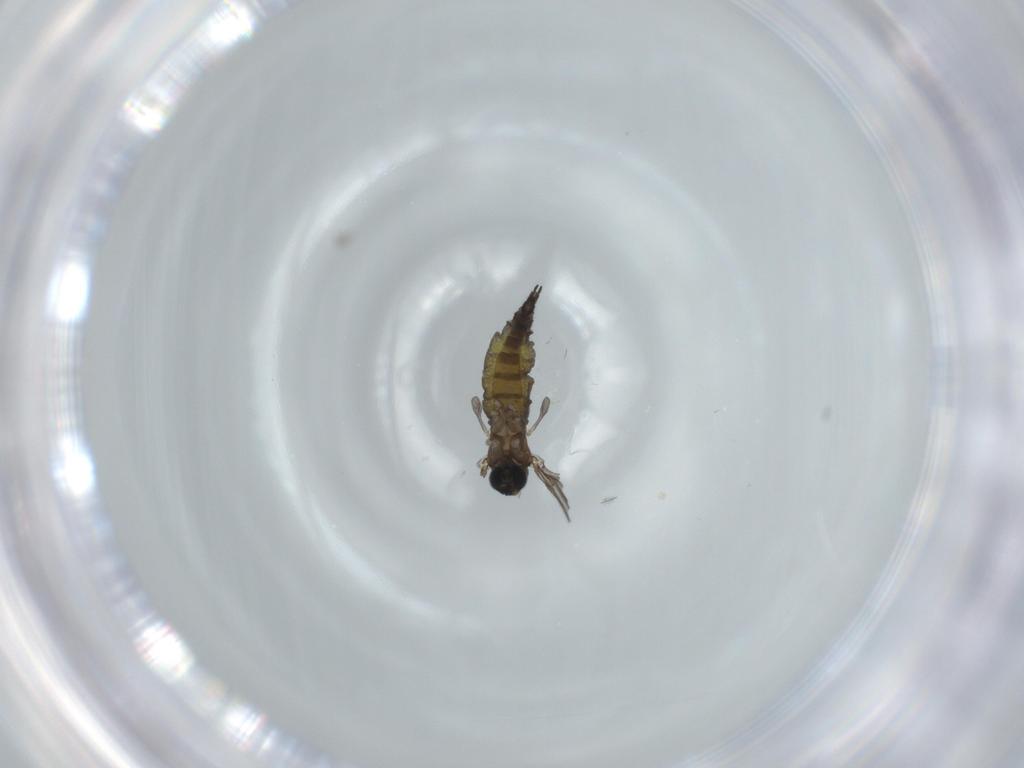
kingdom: Animalia
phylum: Arthropoda
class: Insecta
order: Diptera
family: Sciaridae
